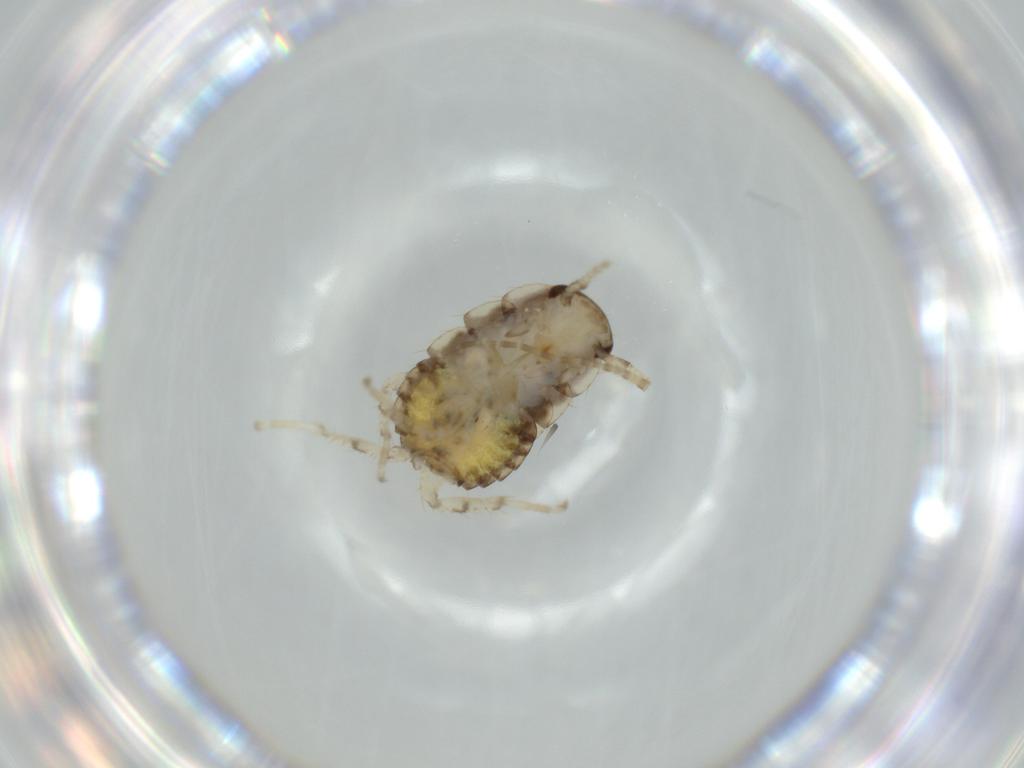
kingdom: Animalia
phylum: Arthropoda
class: Insecta
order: Blattodea
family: Ectobiidae
